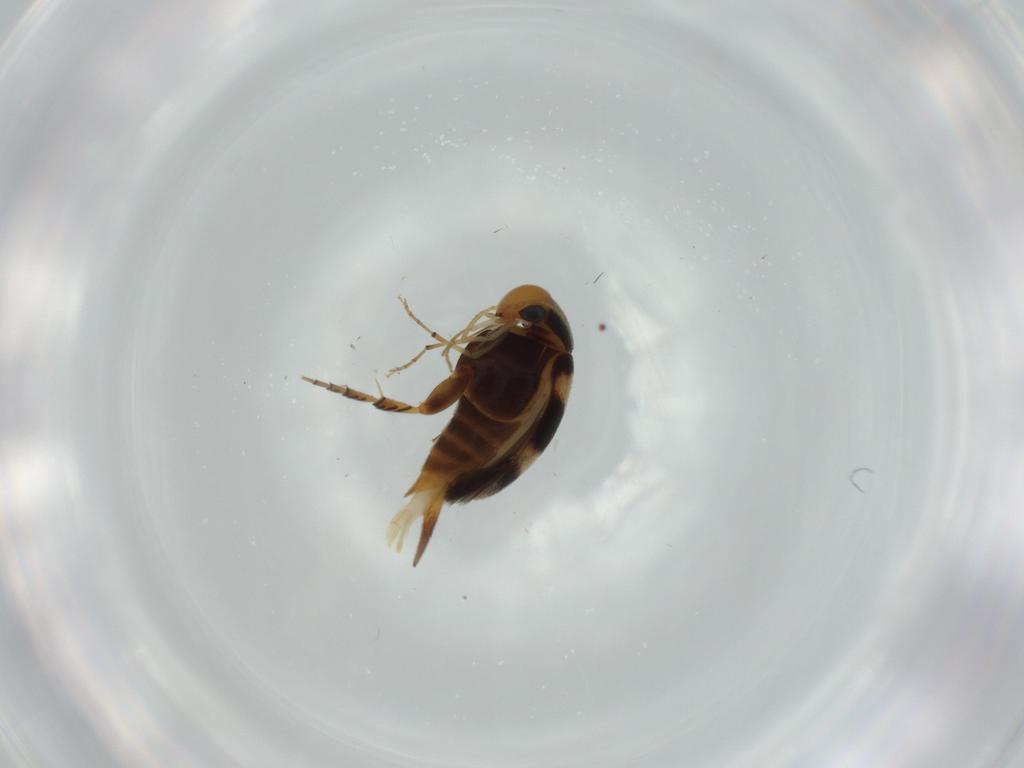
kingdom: Animalia
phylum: Arthropoda
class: Insecta
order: Coleoptera
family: Mordellidae
